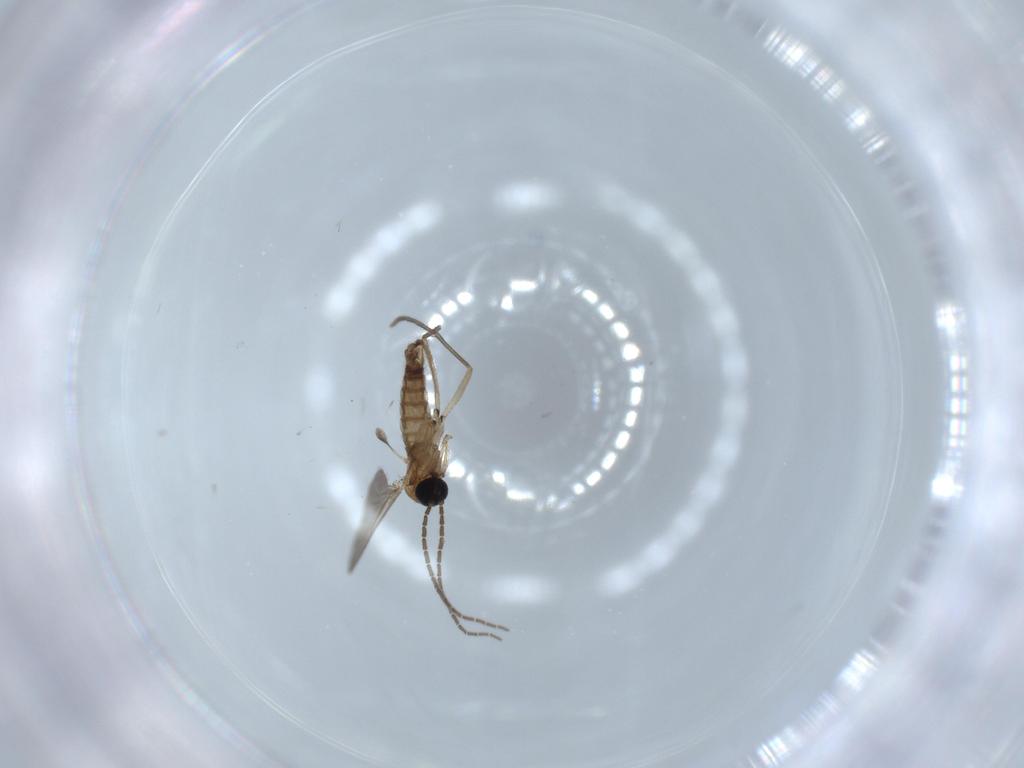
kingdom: Animalia
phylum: Arthropoda
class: Insecta
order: Diptera
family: Sciaridae
